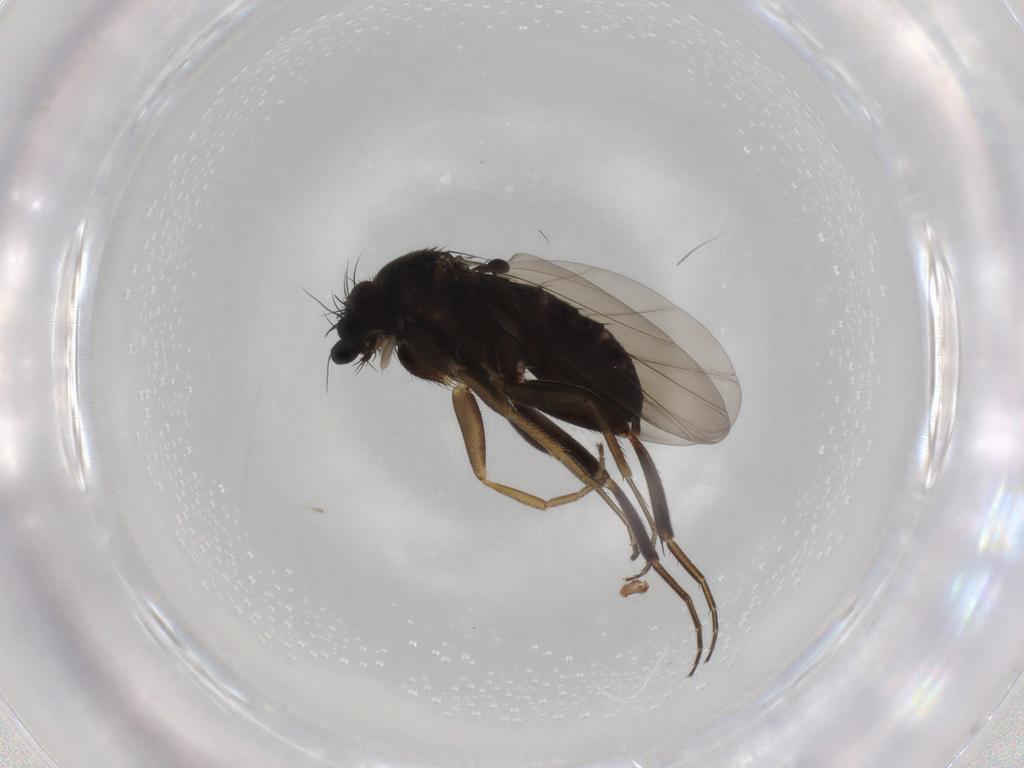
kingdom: Animalia
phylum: Arthropoda
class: Insecta
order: Diptera
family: Phoridae
